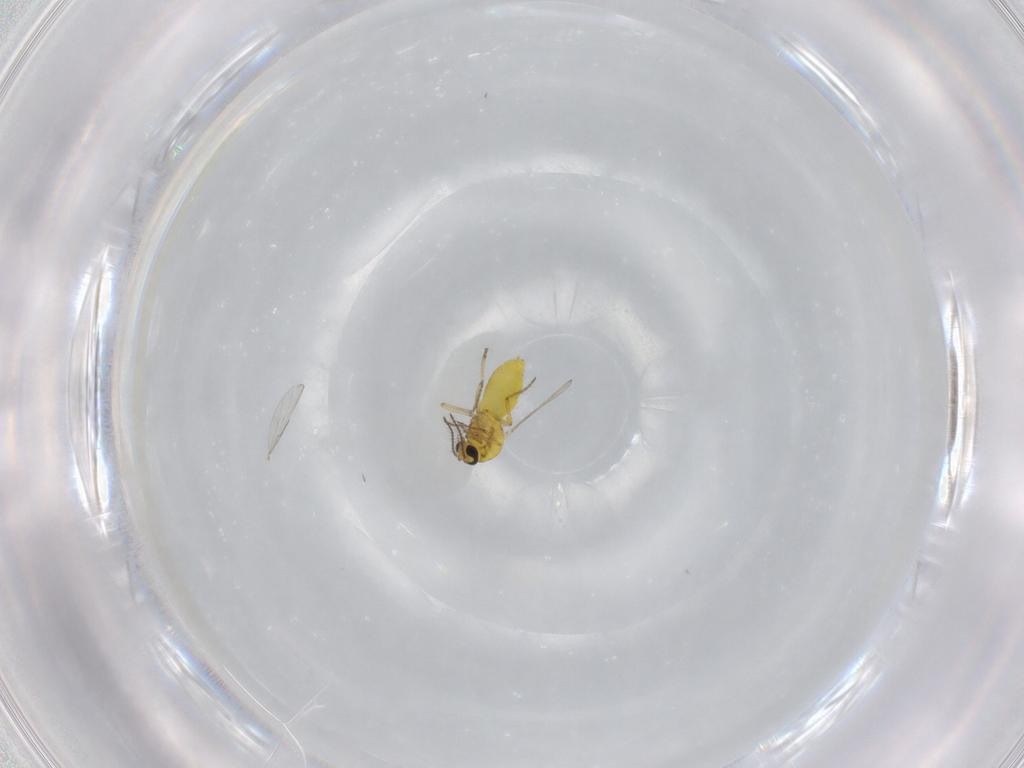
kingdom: Animalia
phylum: Arthropoda
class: Insecta
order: Diptera
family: Ceratopogonidae
